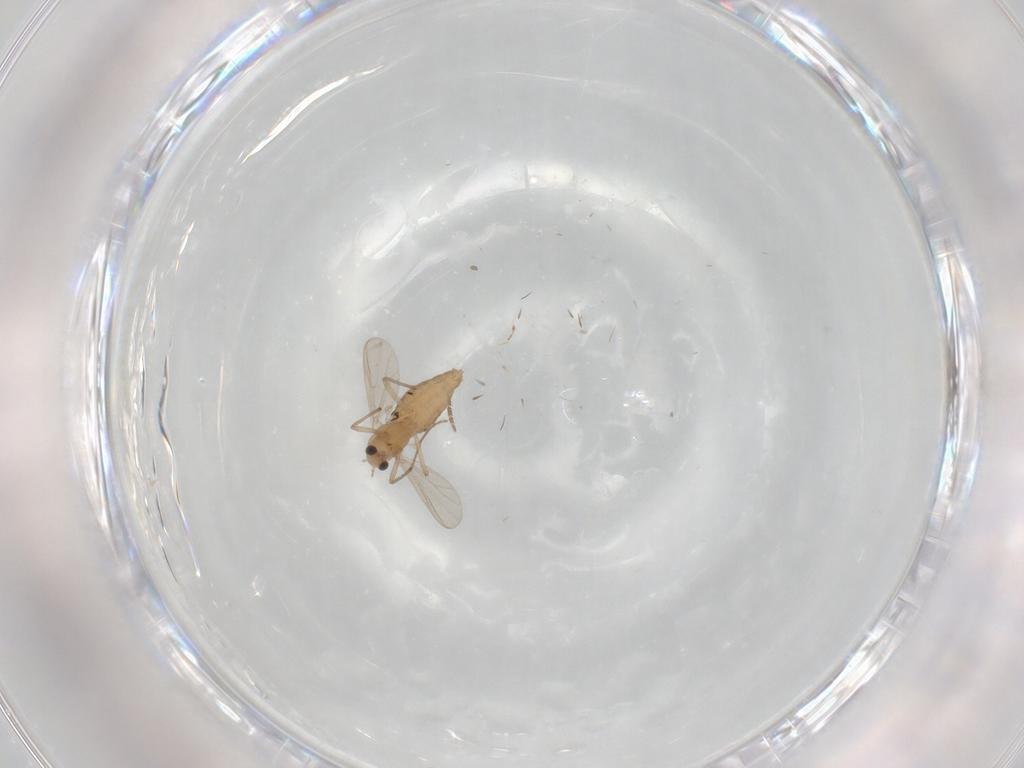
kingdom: Animalia
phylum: Arthropoda
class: Insecta
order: Diptera
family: Chironomidae
